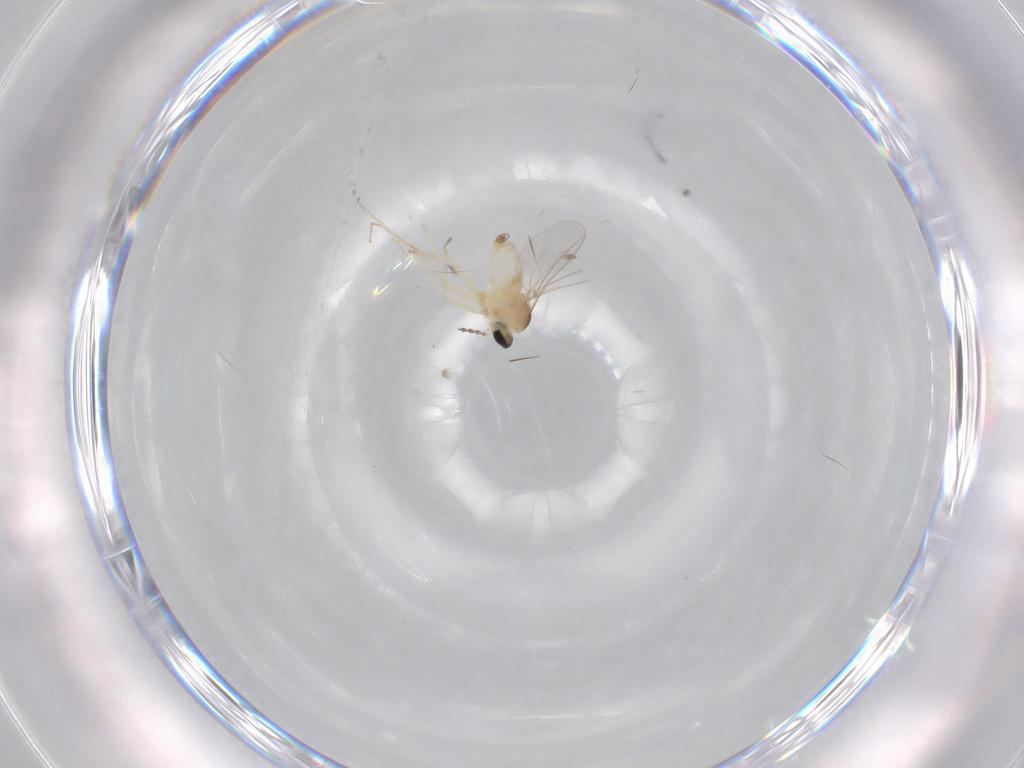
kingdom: Animalia
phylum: Arthropoda
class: Insecta
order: Diptera
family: Cecidomyiidae
